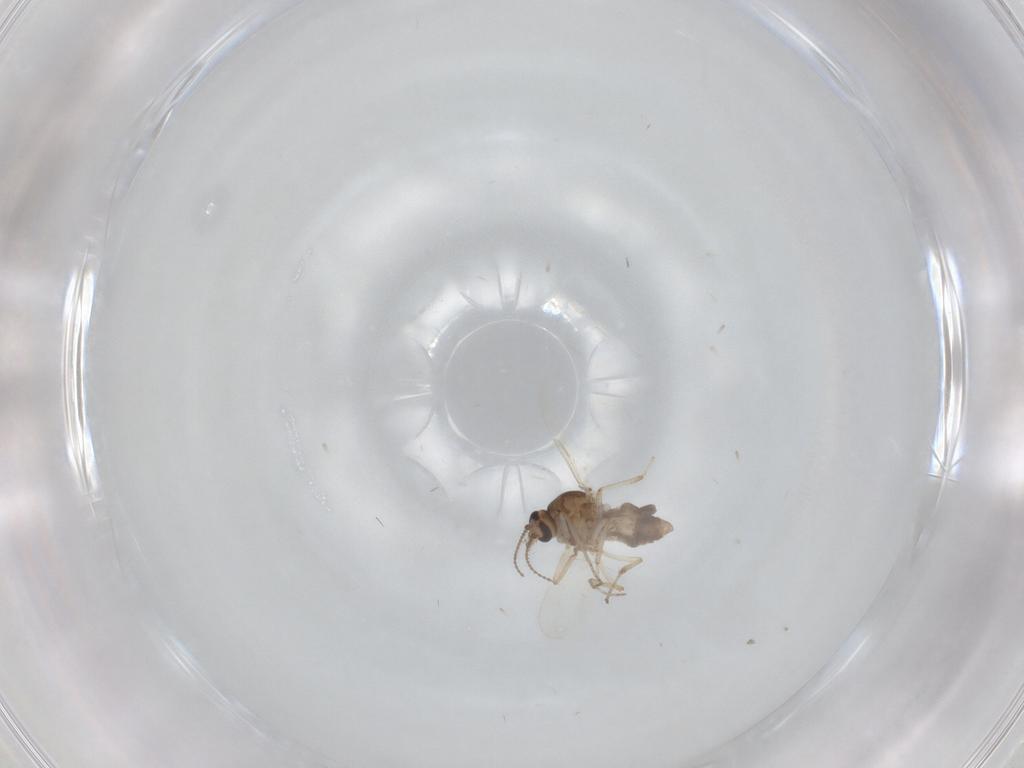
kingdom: Animalia
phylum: Arthropoda
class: Insecta
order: Diptera
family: Ceratopogonidae
